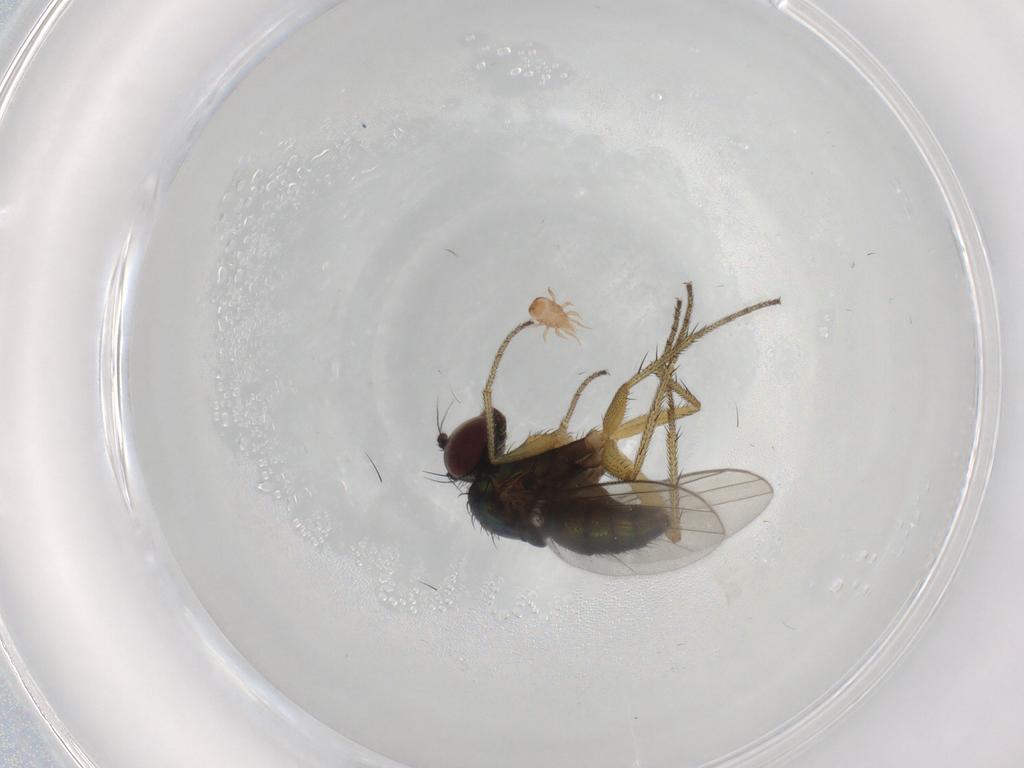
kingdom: Animalia
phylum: Arthropoda
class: Insecta
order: Diptera
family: Dolichopodidae
